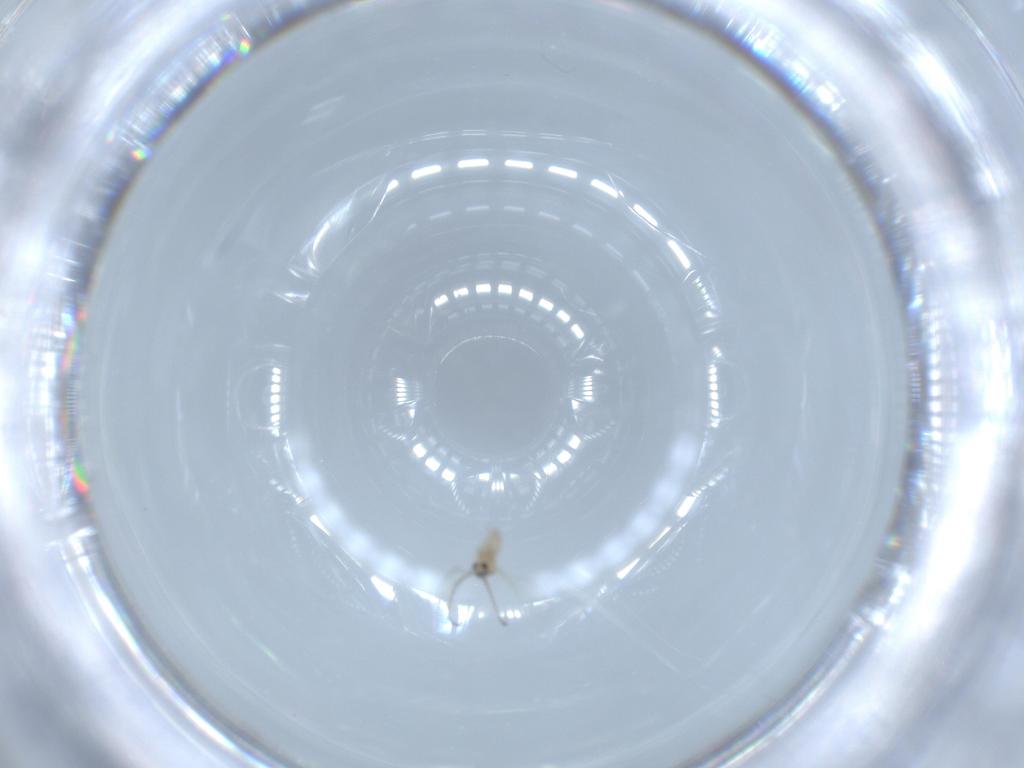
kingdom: Animalia
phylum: Arthropoda
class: Insecta
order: Diptera
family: Cecidomyiidae
